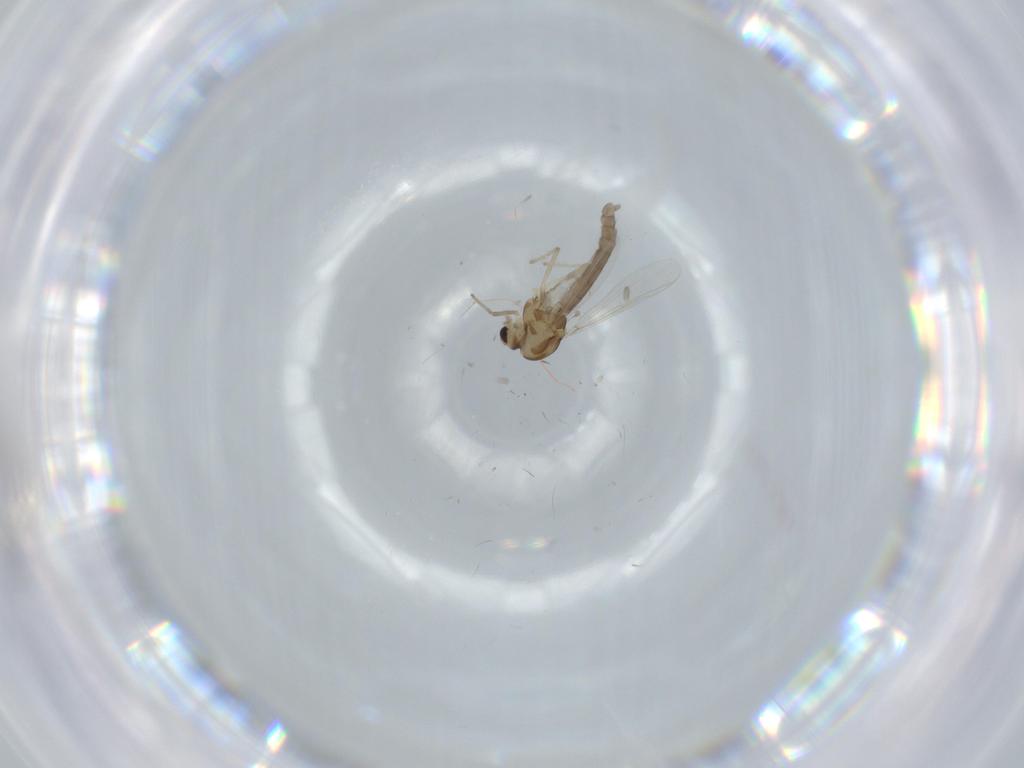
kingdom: Animalia
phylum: Arthropoda
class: Insecta
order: Diptera
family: Chironomidae
